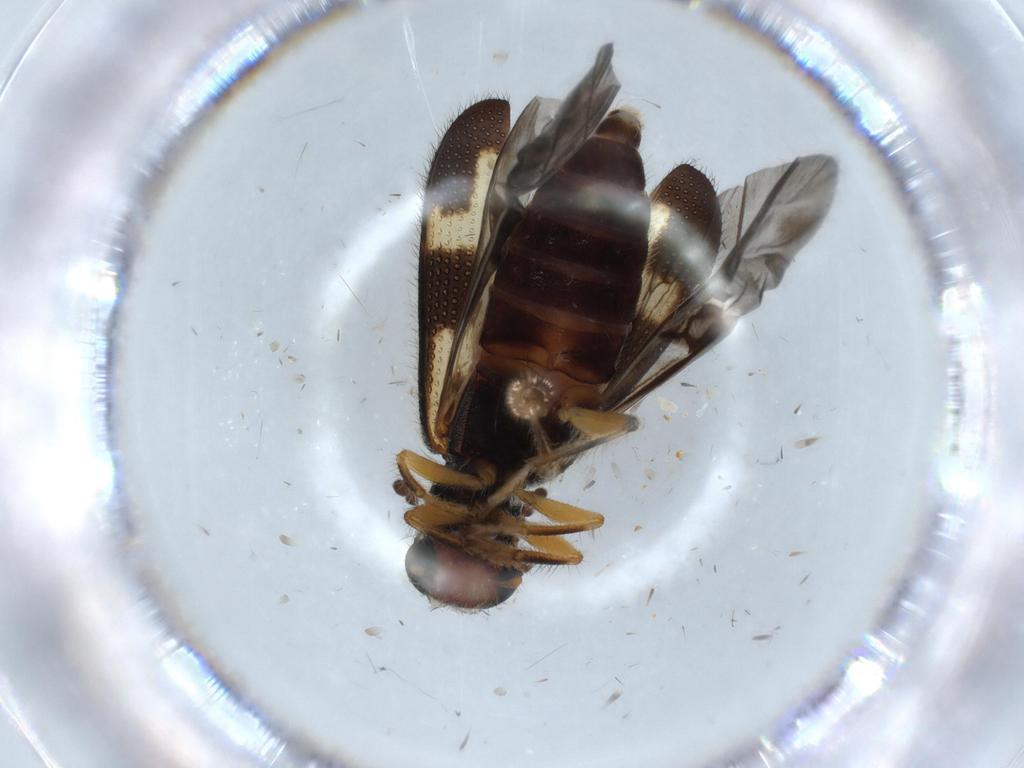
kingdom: Animalia
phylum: Arthropoda
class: Insecta
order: Coleoptera
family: Cleridae
